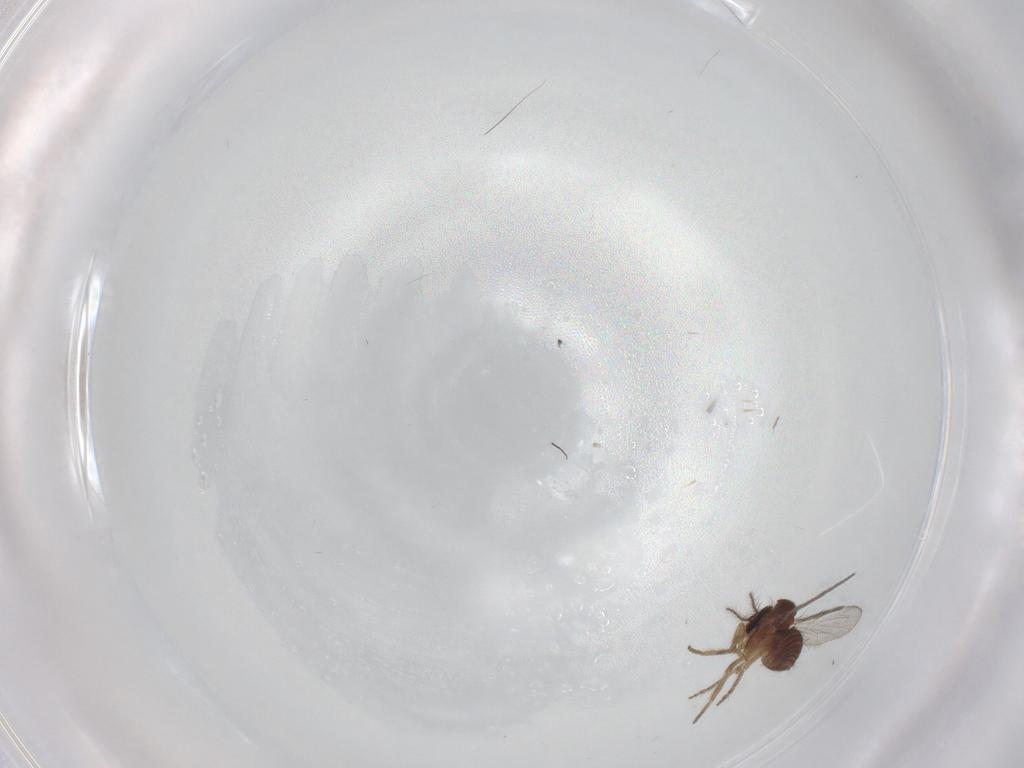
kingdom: Animalia
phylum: Arthropoda
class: Insecta
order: Diptera
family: Ceratopogonidae
